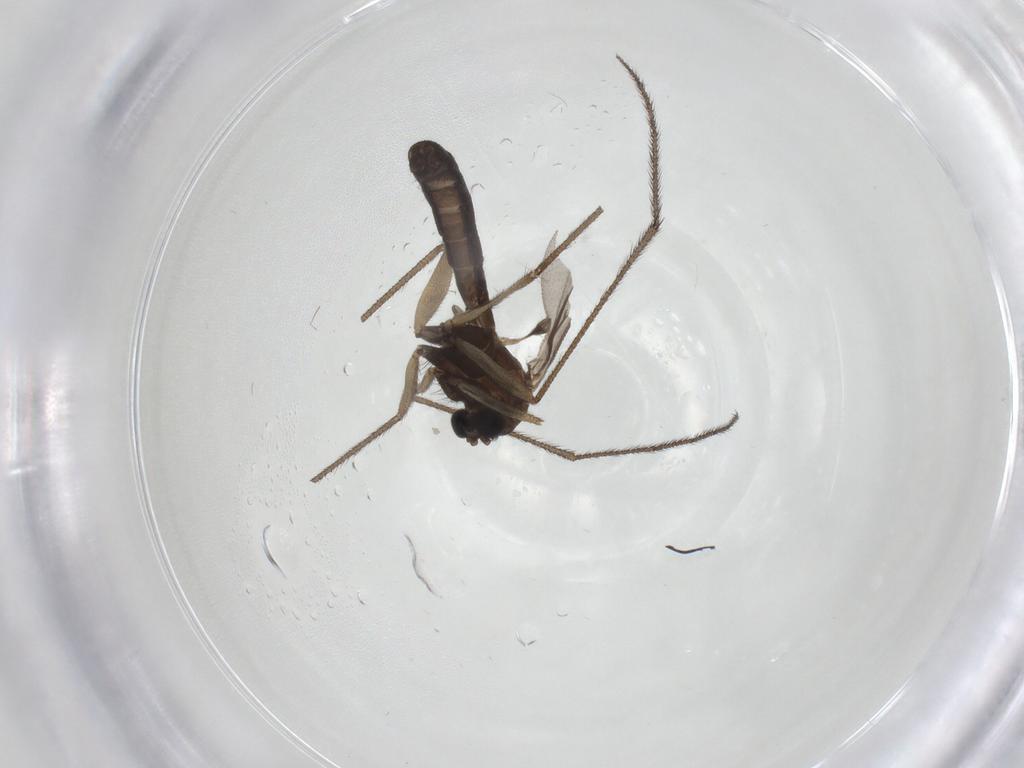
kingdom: Animalia
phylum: Arthropoda
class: Insecta
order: Diptera
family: Ditomyiidae
